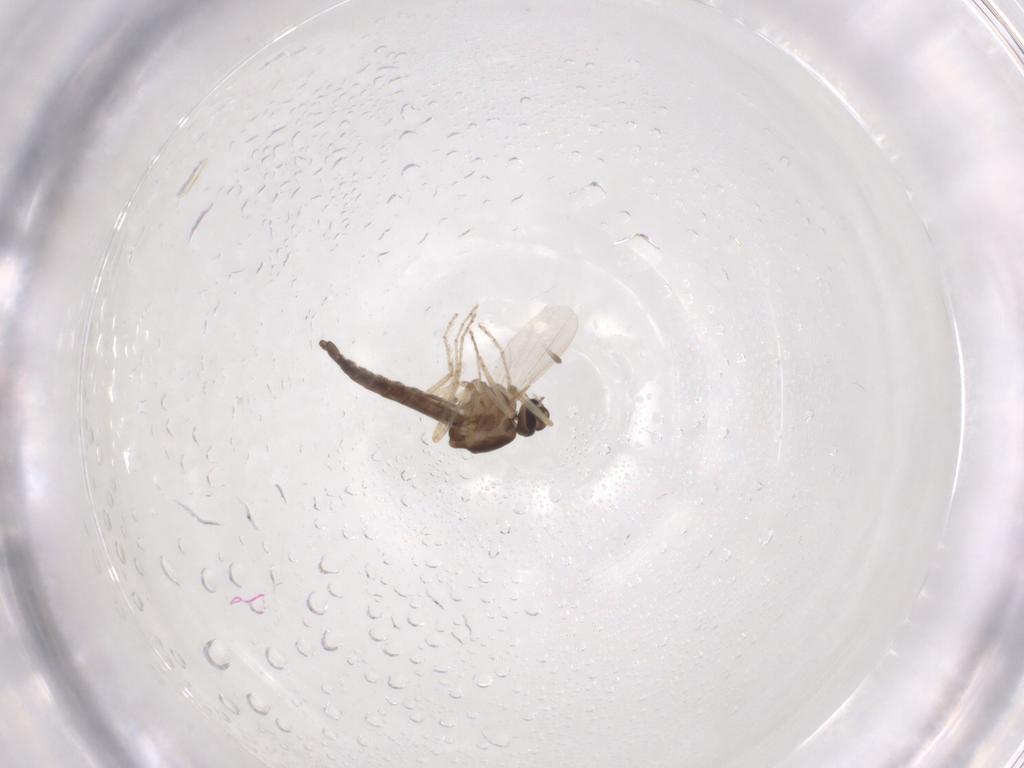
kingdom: Animalia
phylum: Arthropoda
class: Insecta
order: Diptera
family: Ceratopogonidae
